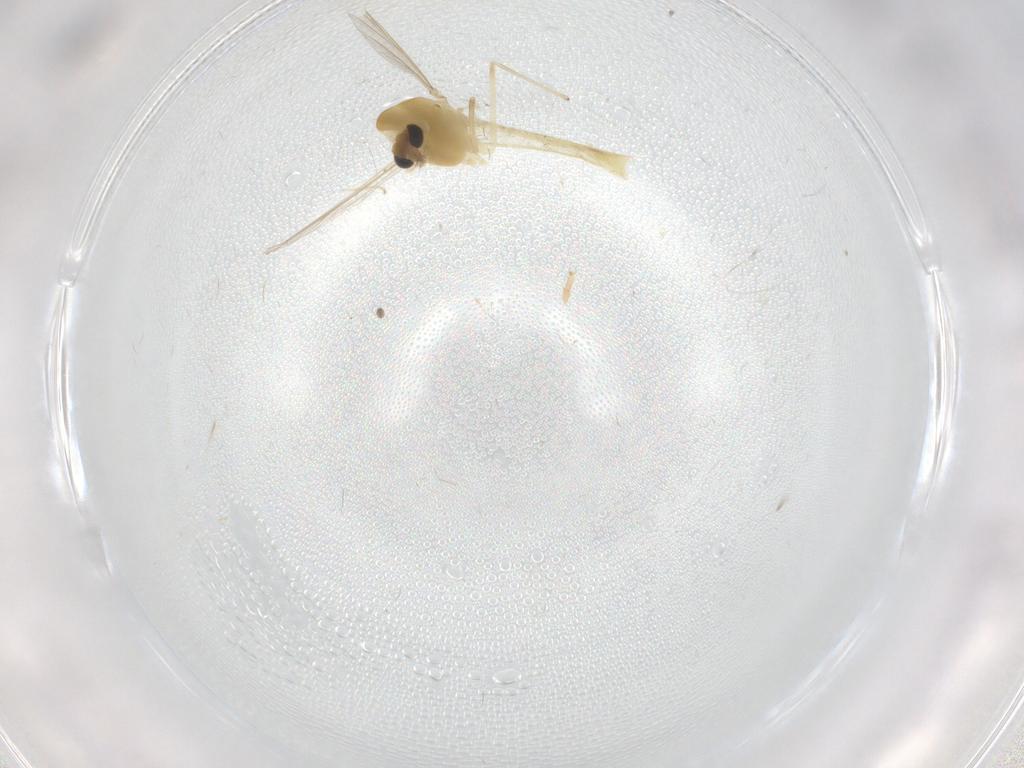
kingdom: Animalia
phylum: Arthropoda
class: Insecta
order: Diptera
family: Chironomidae
